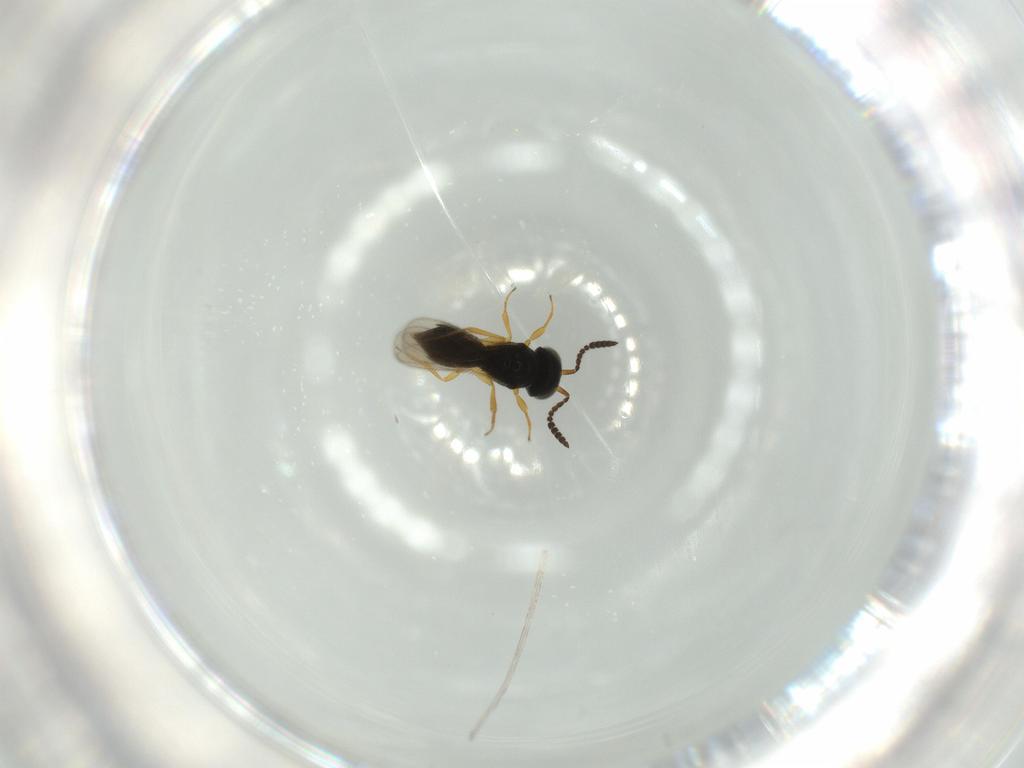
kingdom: Animalia
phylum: Arthropoda
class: Insecta
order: Hymenoptera
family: Scelionidae
